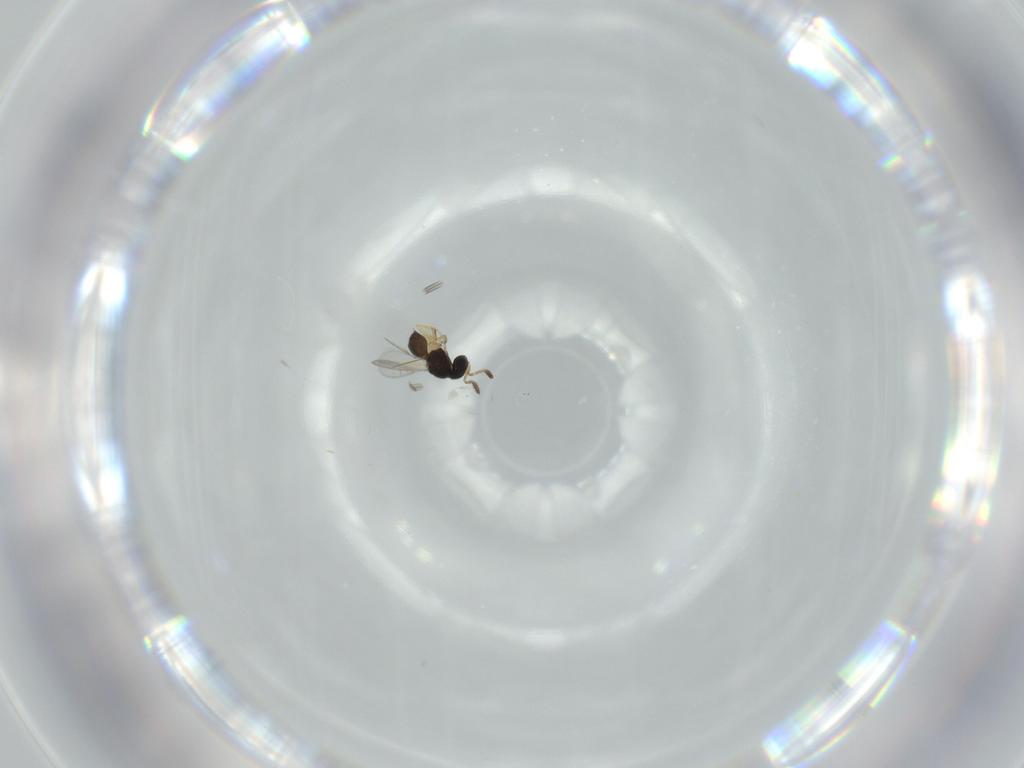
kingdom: Animalia
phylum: Arthropoda
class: Insecta
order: Hymenoptera
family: Scelionidae
